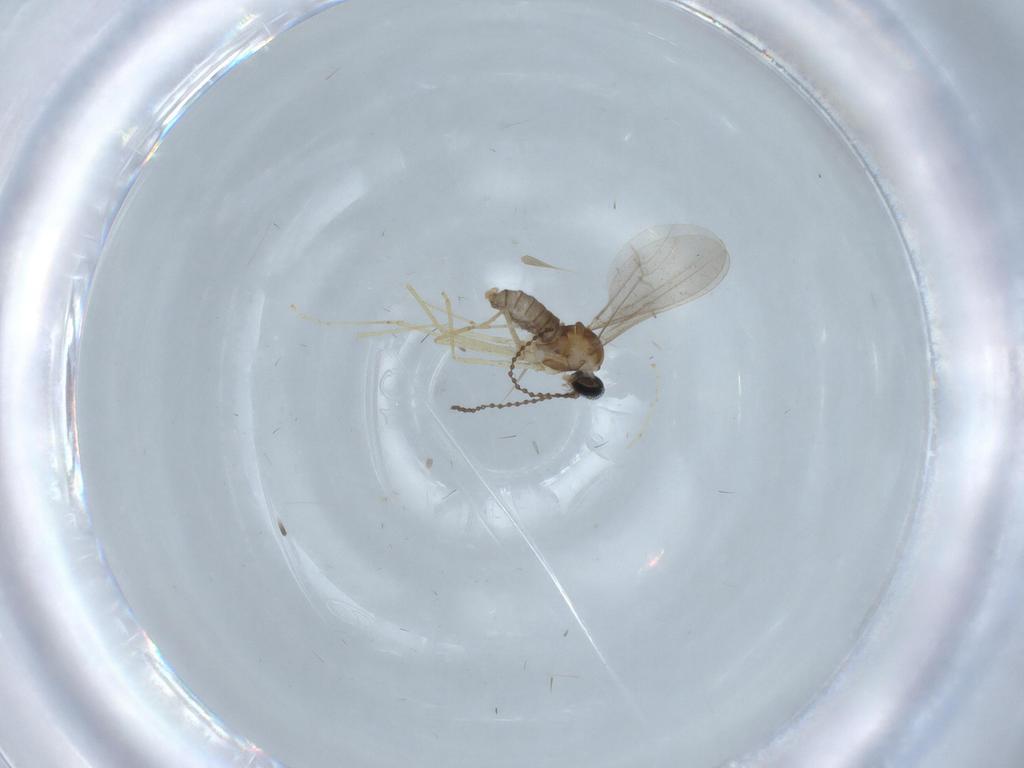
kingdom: Animalia
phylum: Arthropoda
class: Insecta
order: Diptera
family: Cecidomyiidae
